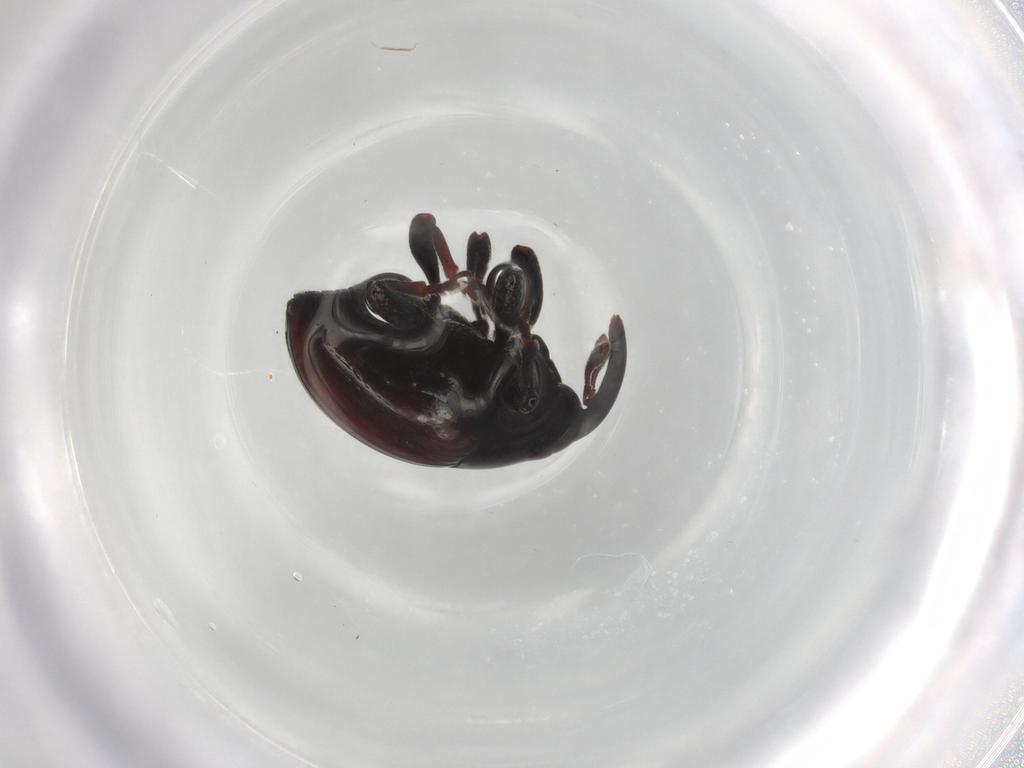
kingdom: Animalia
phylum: Arthropoda
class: Insecta
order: Coleoptera
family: Curculionidae
